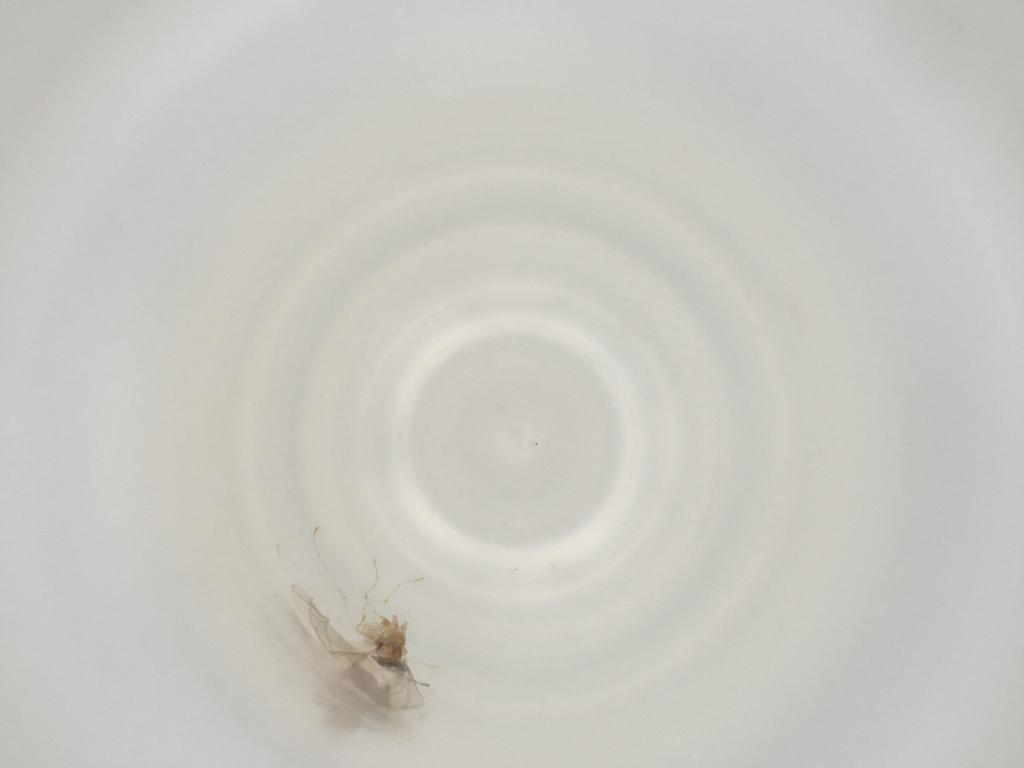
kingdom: Animalia
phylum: Arthropoda
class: Insecta
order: Diptera
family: Cecidomyiidae
